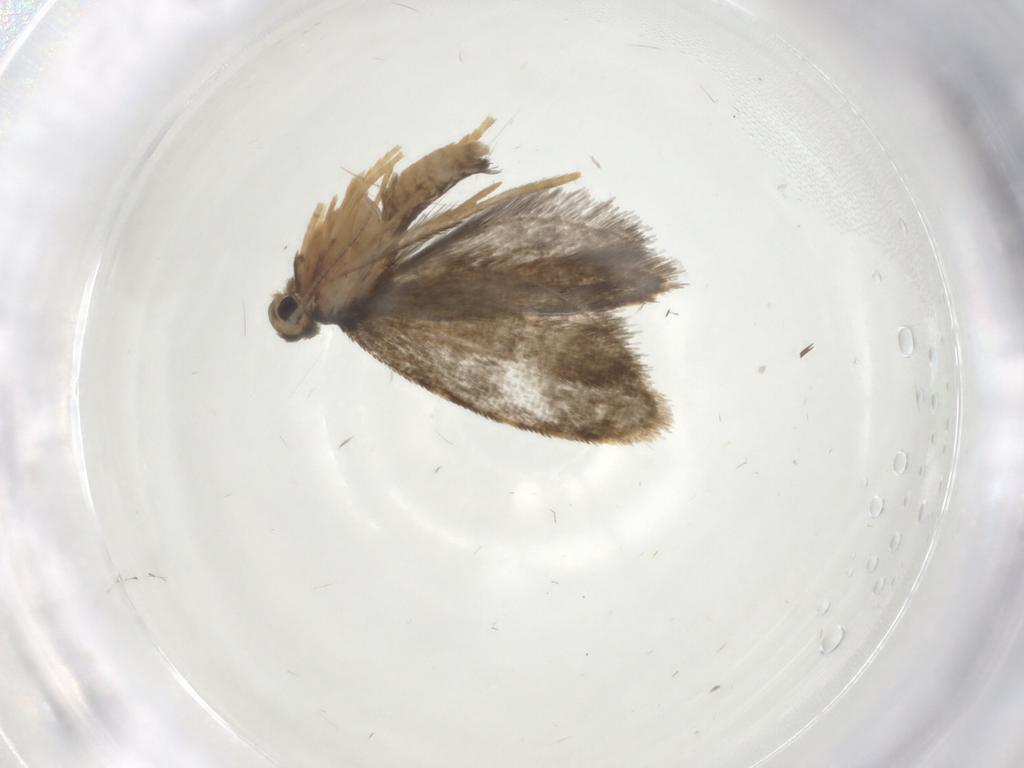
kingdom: Animalia
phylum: Arthropoda
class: Insecta
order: Lepidoptera
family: Psychidae
